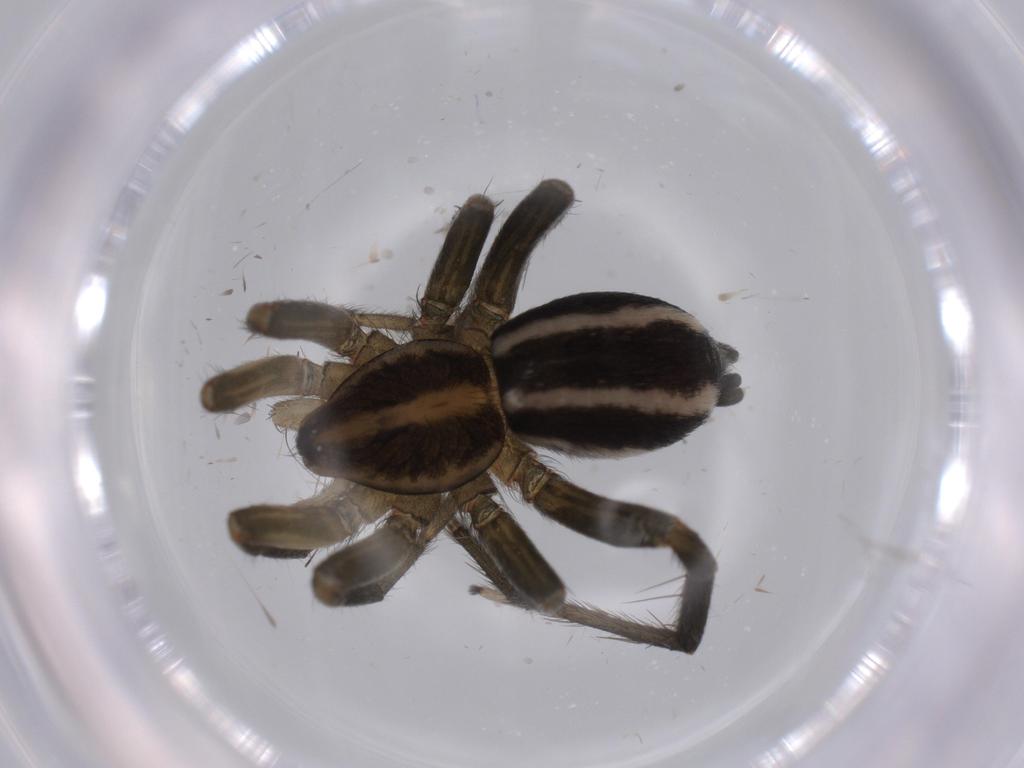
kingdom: Animalia
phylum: Arthropoda
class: Arachnida
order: Araneae
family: Gnaphosidae
